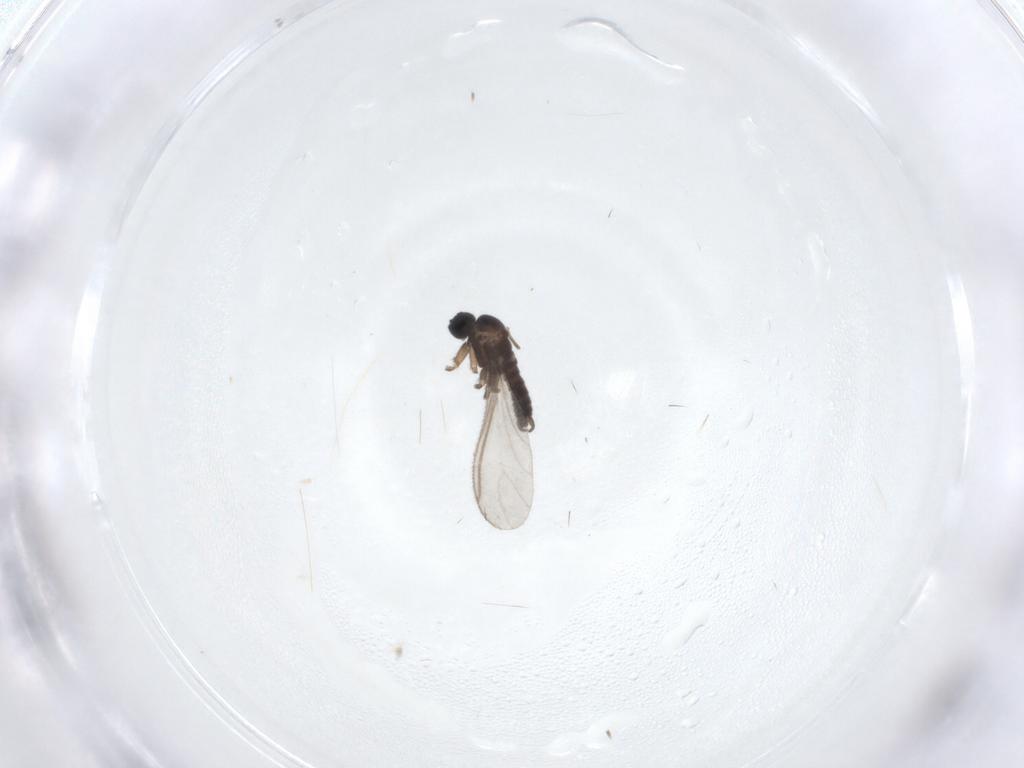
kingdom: Animalia
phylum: Arthropoda
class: Insecta
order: Diptera
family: Sciaridae
